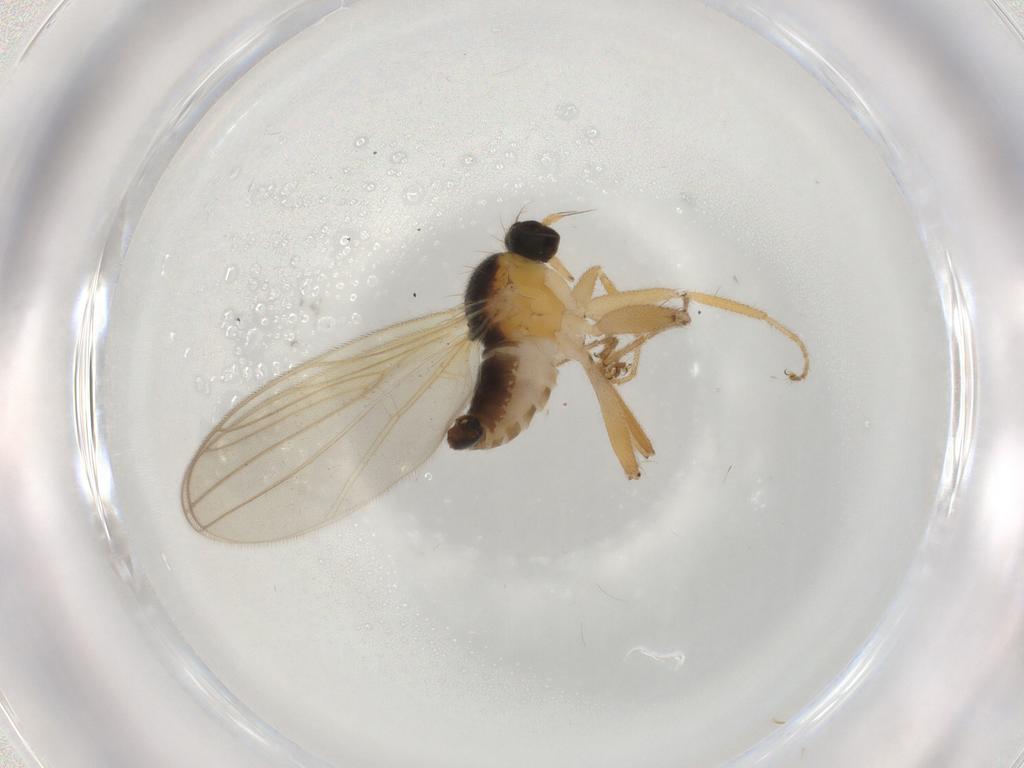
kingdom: Animalia
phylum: Arthropoda
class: Insecta
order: Diptera
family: Hybotidae
